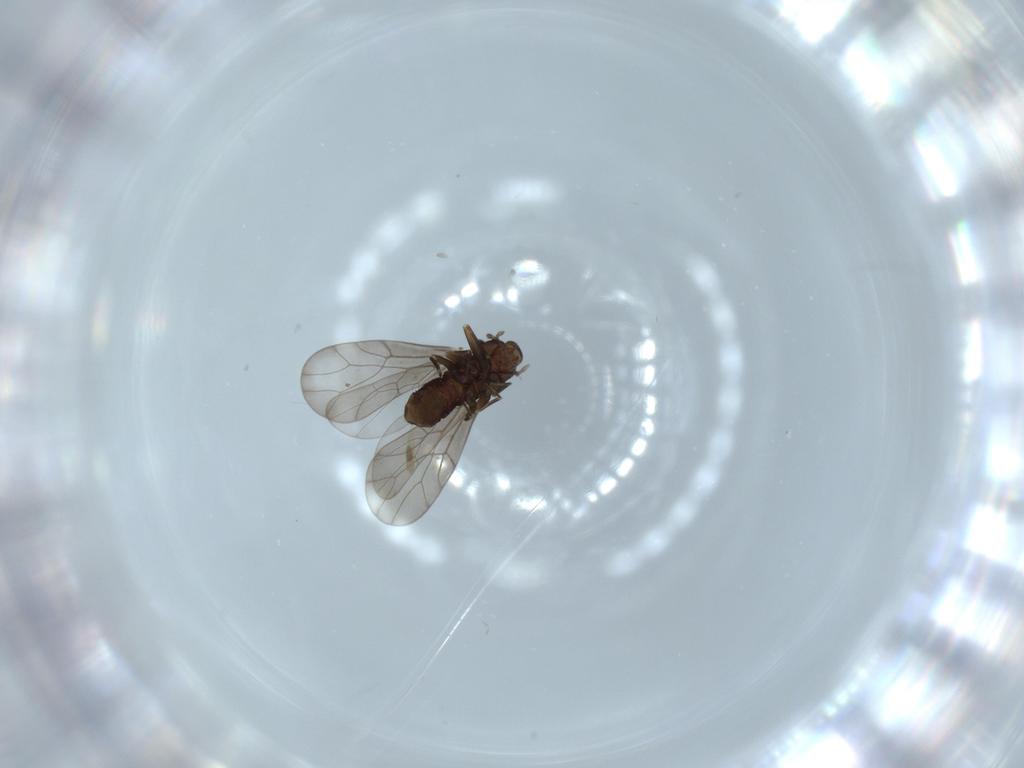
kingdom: Animalia
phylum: Arthropoda
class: Insecta
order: Psocodea
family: Lepidopsocidae
